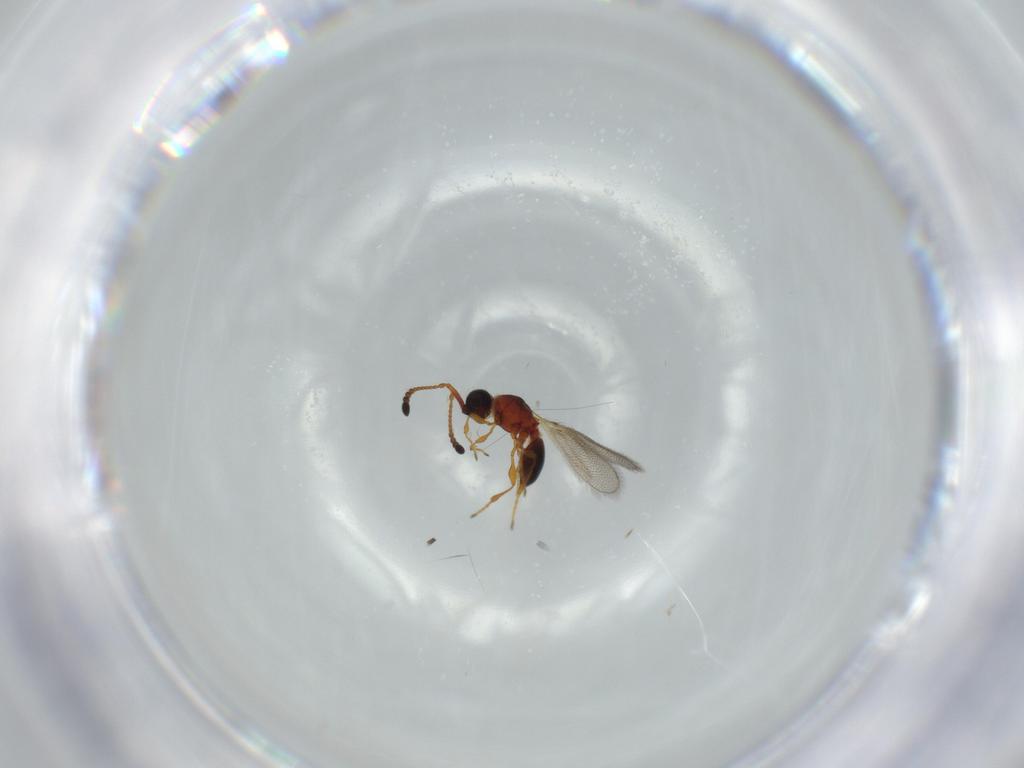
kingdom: Animalia
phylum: Arthropoda
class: Insecta
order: Hymenoptera
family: Diapriidae
